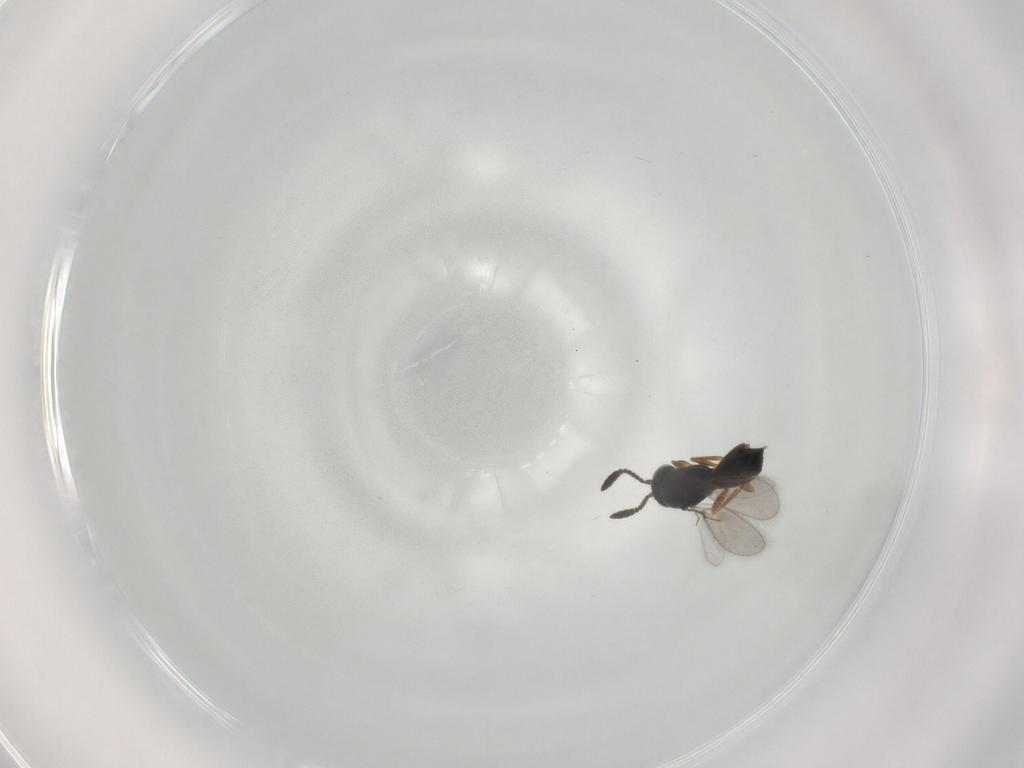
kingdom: Animalia
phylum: Arthropoda
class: Insecta
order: Hymenoptera
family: Scelionidae
